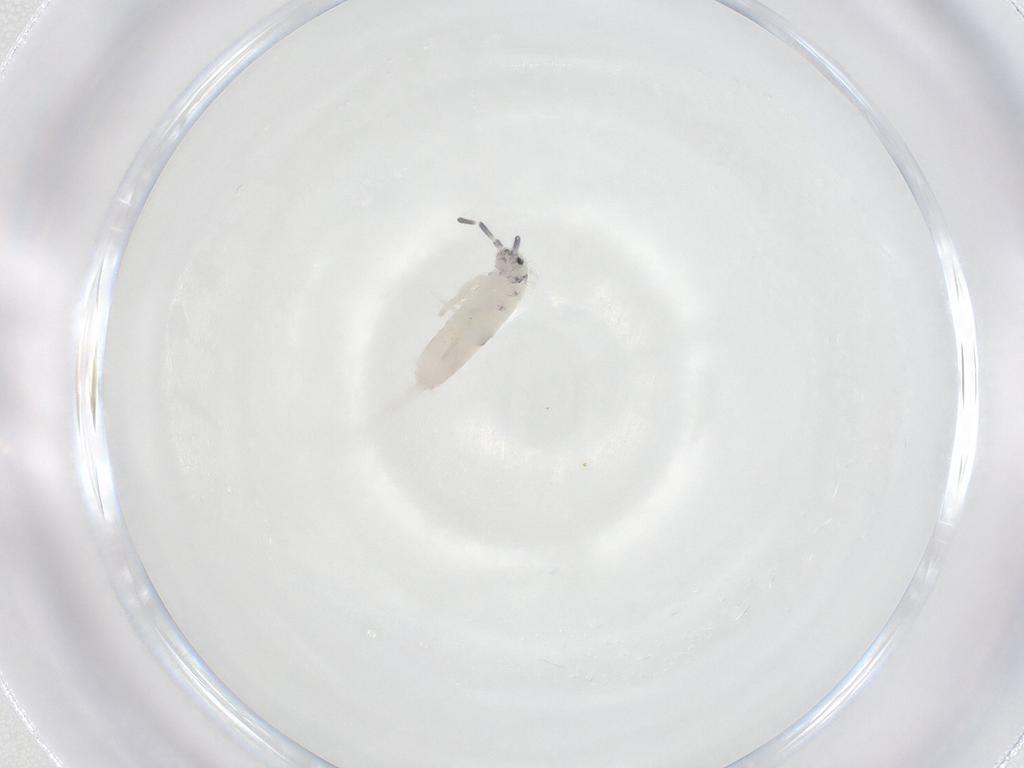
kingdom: Animalia
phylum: Arthropoda
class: Collembola
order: Entomobryomorpha
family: Entomobryidae
